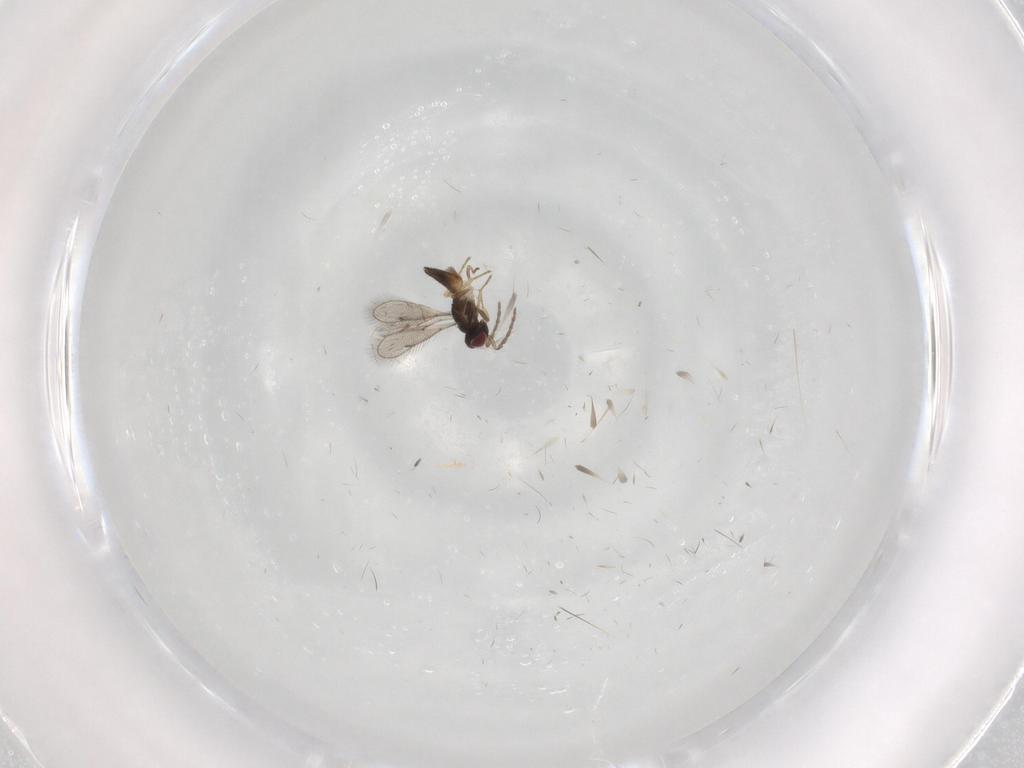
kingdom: Animalia
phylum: Arthropoda
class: Insecta
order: Hymenoptera
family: Eulophidae
